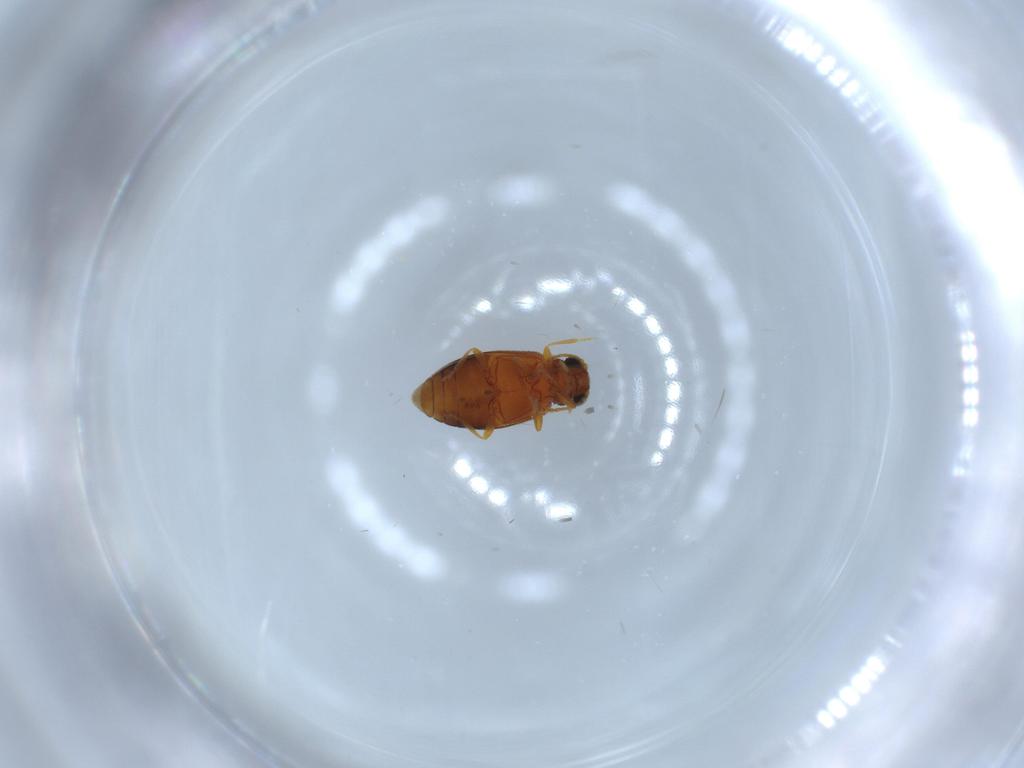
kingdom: Animalia
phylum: Arthropoda
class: Insecta
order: Coleoptera
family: Chrysomelidae
